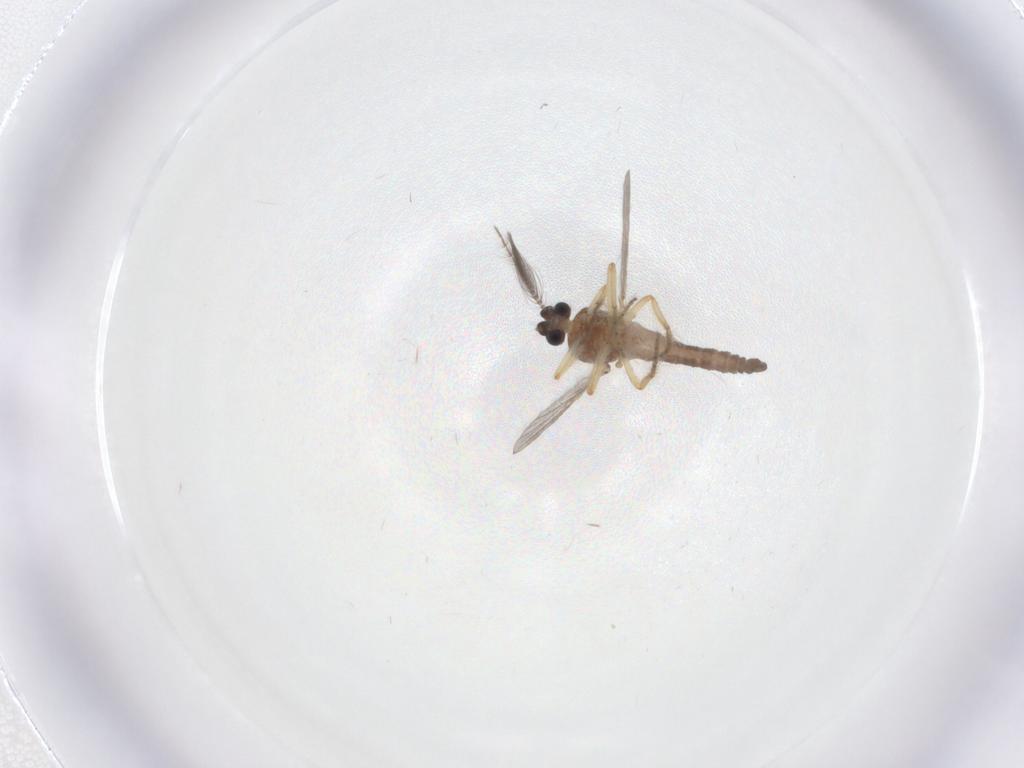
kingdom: Animalia
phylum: Arthropoda
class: Insecta
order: Diptera
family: Ceratopogonidae
